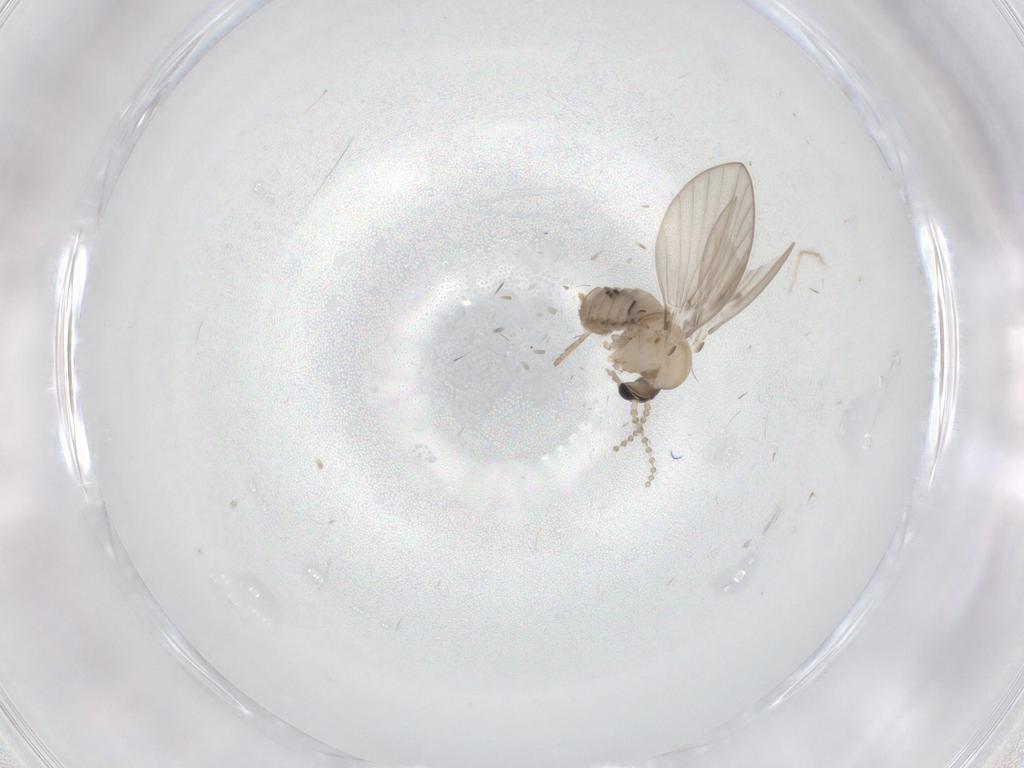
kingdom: Animalia
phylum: Arthropoda
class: Insecta
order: Diptera
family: Psychodidae
